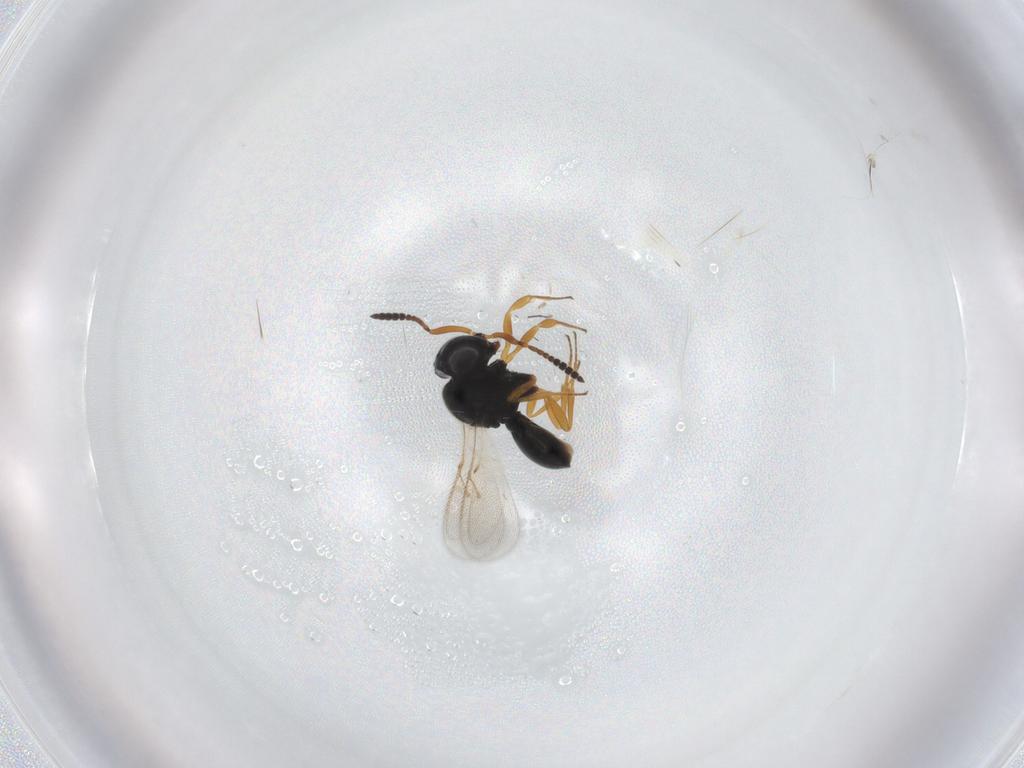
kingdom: Animalia
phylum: Arthropoda
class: Insecta
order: Hymenoptera
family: Scelionidae
